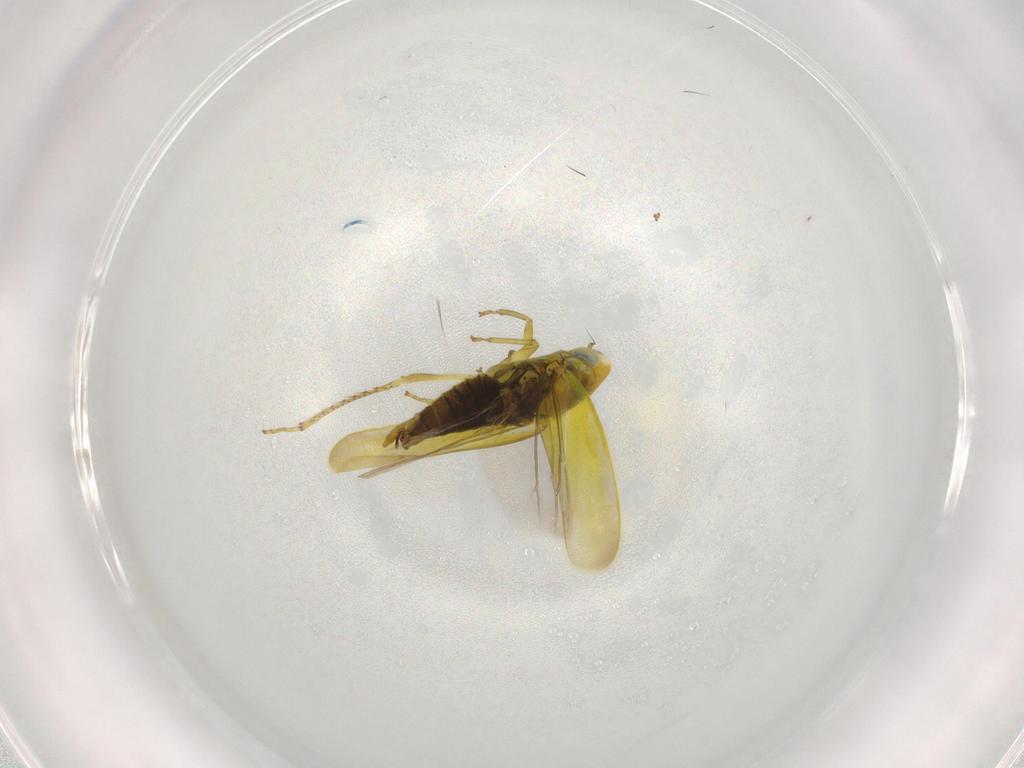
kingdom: Animalia
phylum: Arthropoda
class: Insecta
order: Hemiptera
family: Cicadellidae
